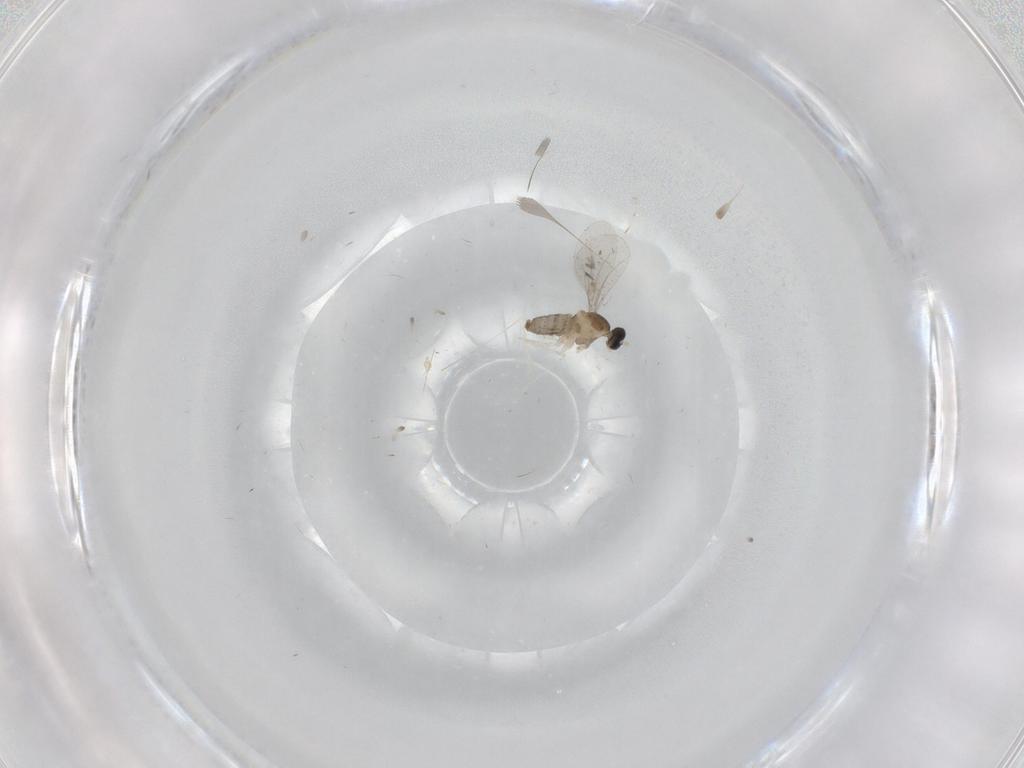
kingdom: Animalia
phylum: Arthropoda
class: Insecta
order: Diptera
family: Cecidomyiidae
